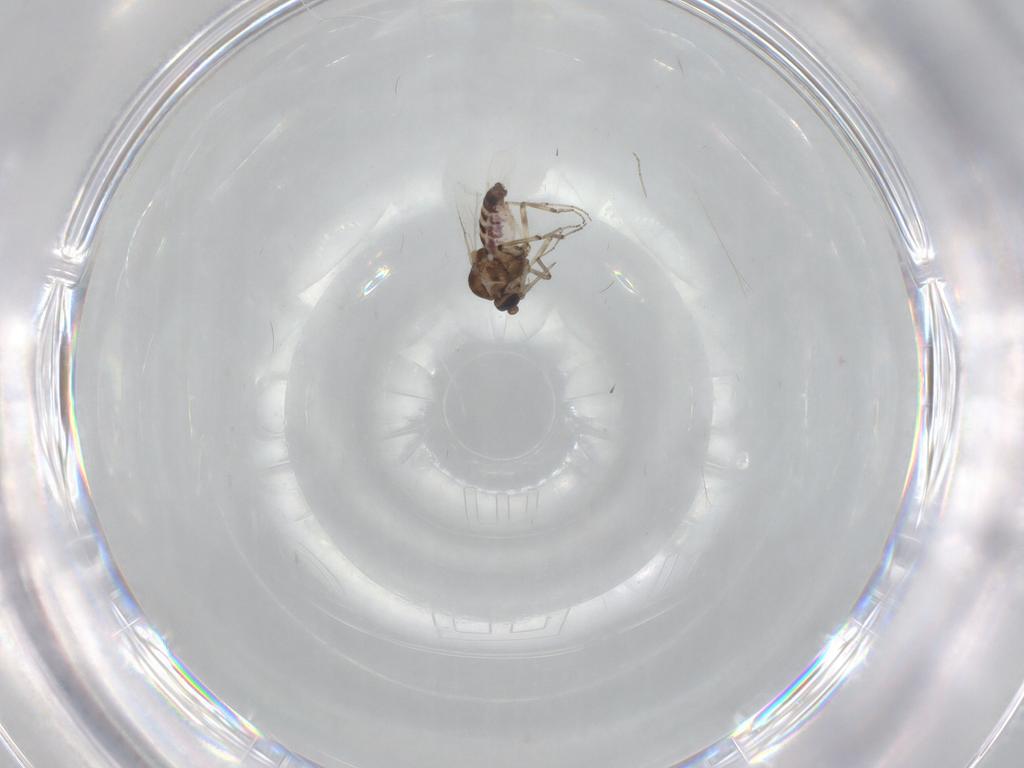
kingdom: Animalia
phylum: Arthropoda
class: Insecta
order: Diptera
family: Ceratopogonidae
